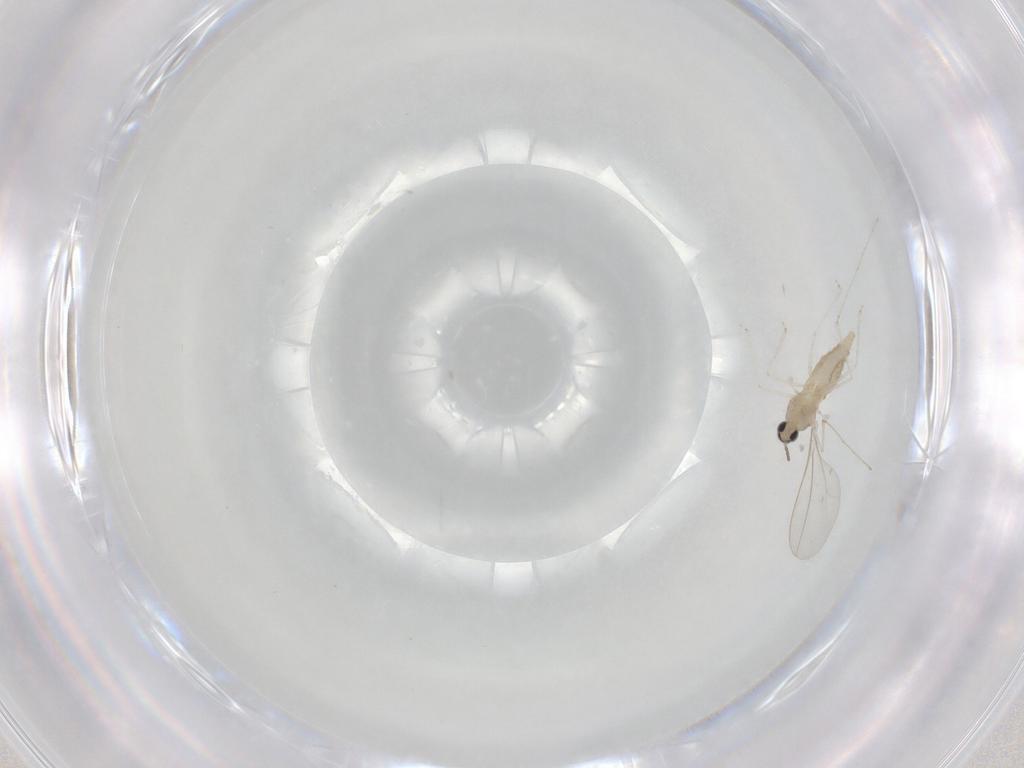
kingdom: Animalia
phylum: Arthropoda
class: Insecta
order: Diptera
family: Cecidomyiidae
